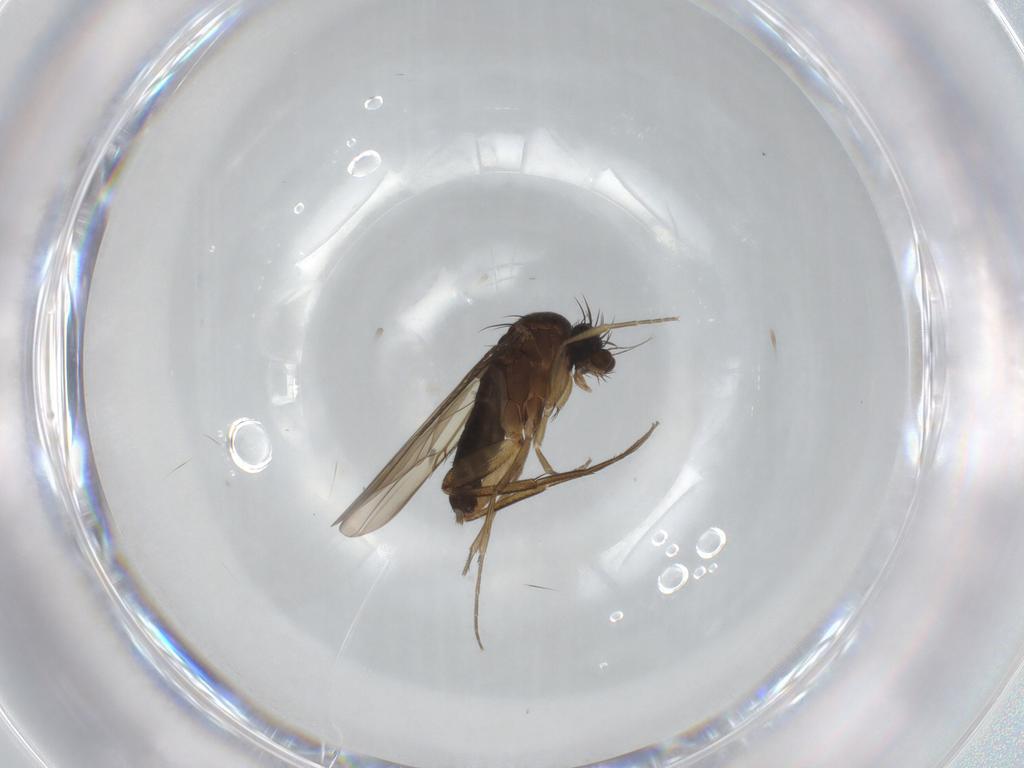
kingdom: Animalia
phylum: Arthropoda
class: Insecta
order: Diptera
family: Phoridae
